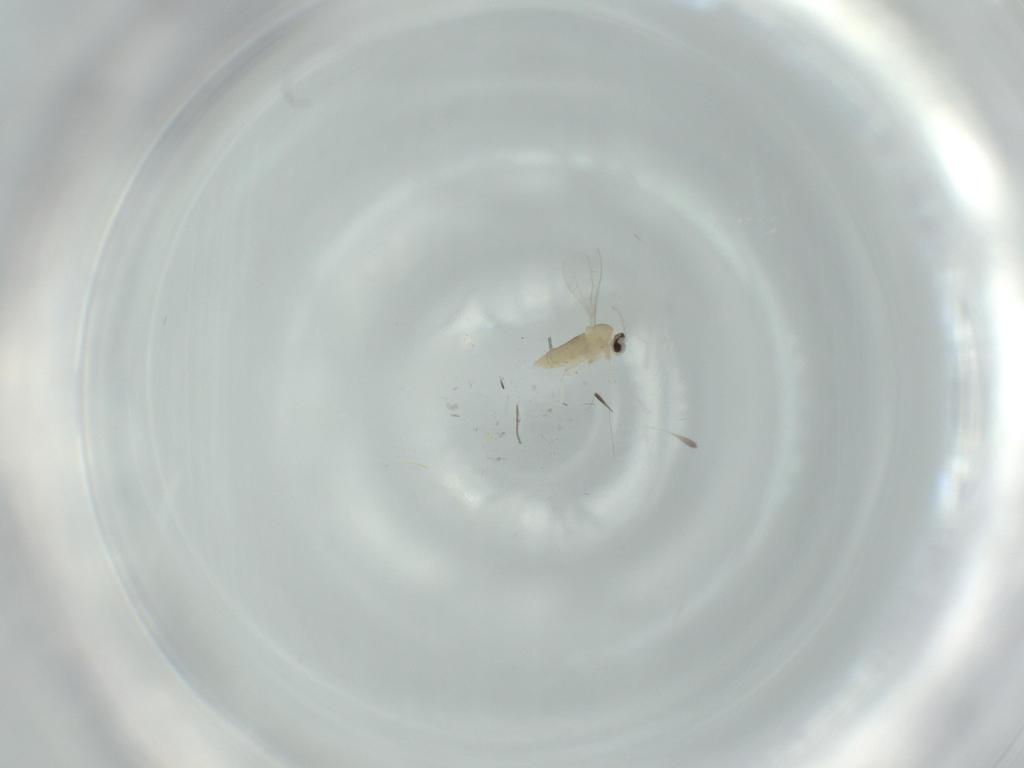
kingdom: Animalia
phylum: Arthropoda
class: Insecta
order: Diptera
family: Cecidomyiidae
